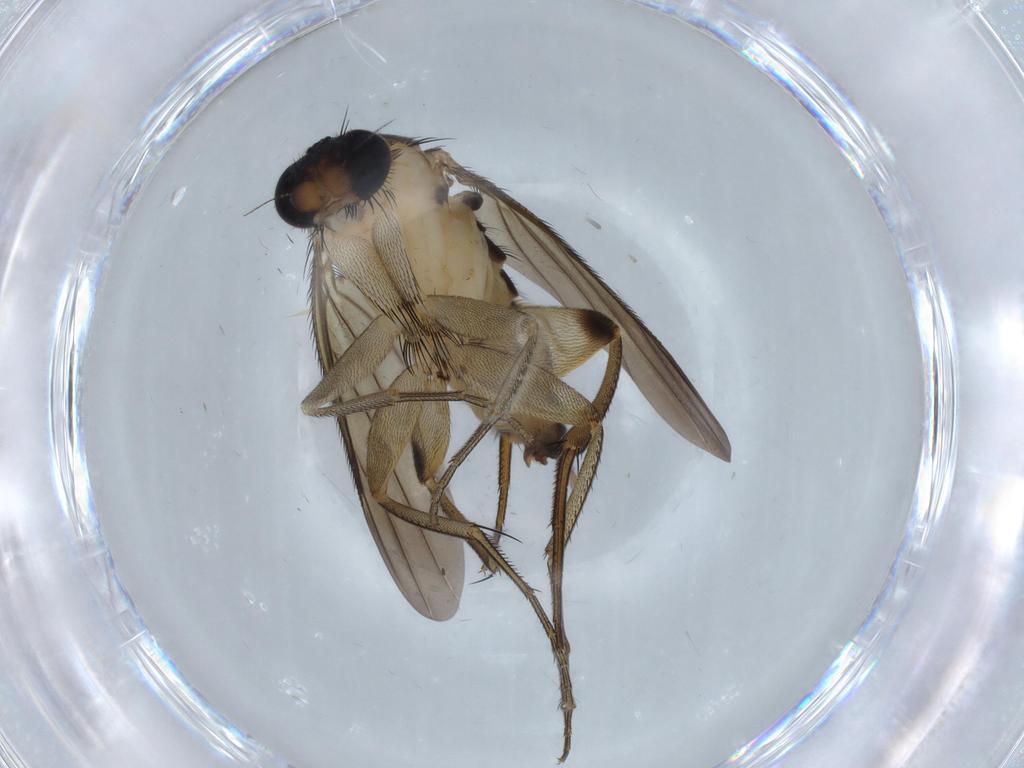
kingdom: Animalia
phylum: Arthropoda
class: Insecta
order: Diptera
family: Phoridae
